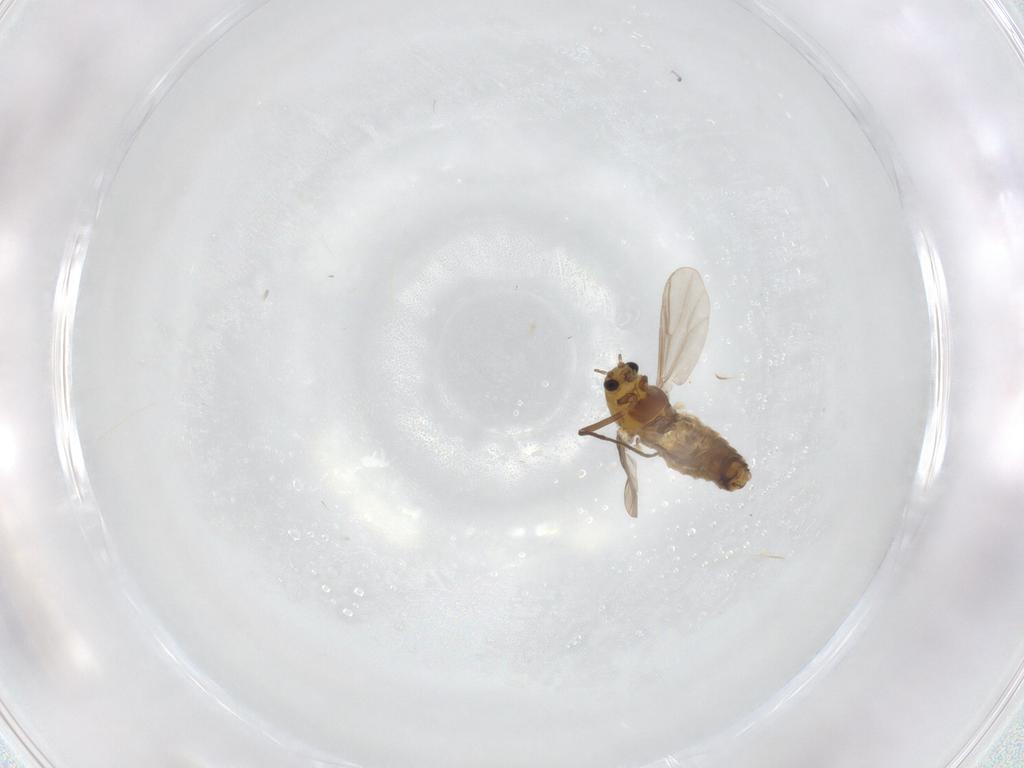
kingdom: Animalia
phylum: Arthropoda
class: Insecta
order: Diptera
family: Chironomidae
